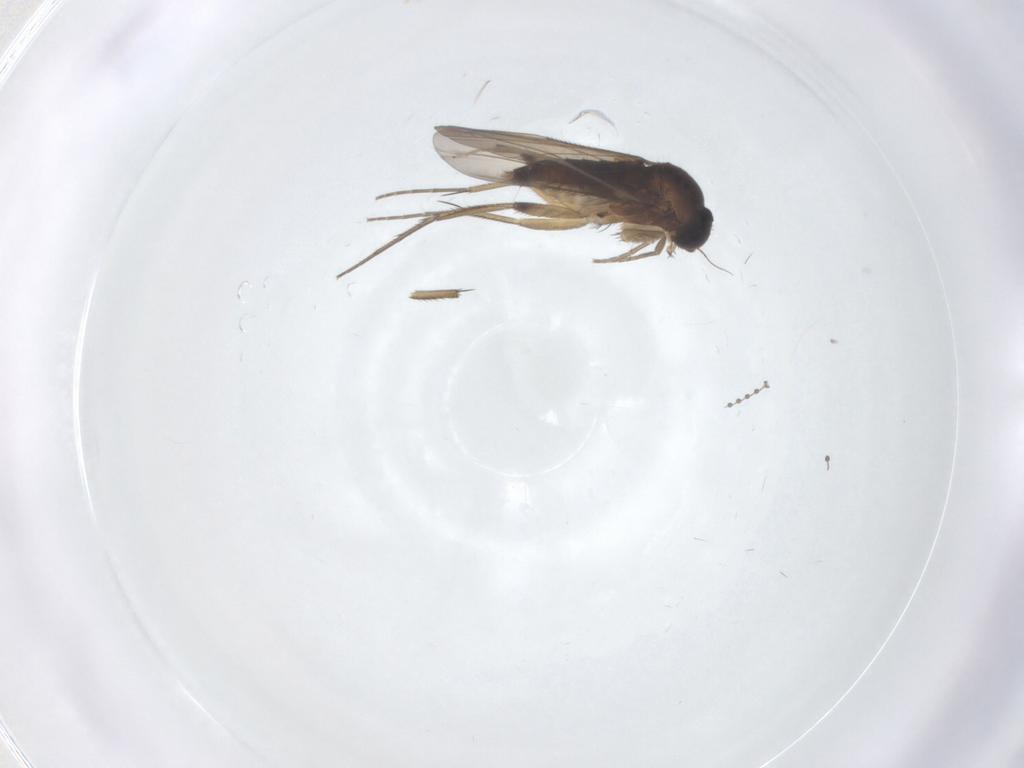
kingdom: Animalia
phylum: Arthropoda
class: Insecta
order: Diptera
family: Phoridae
